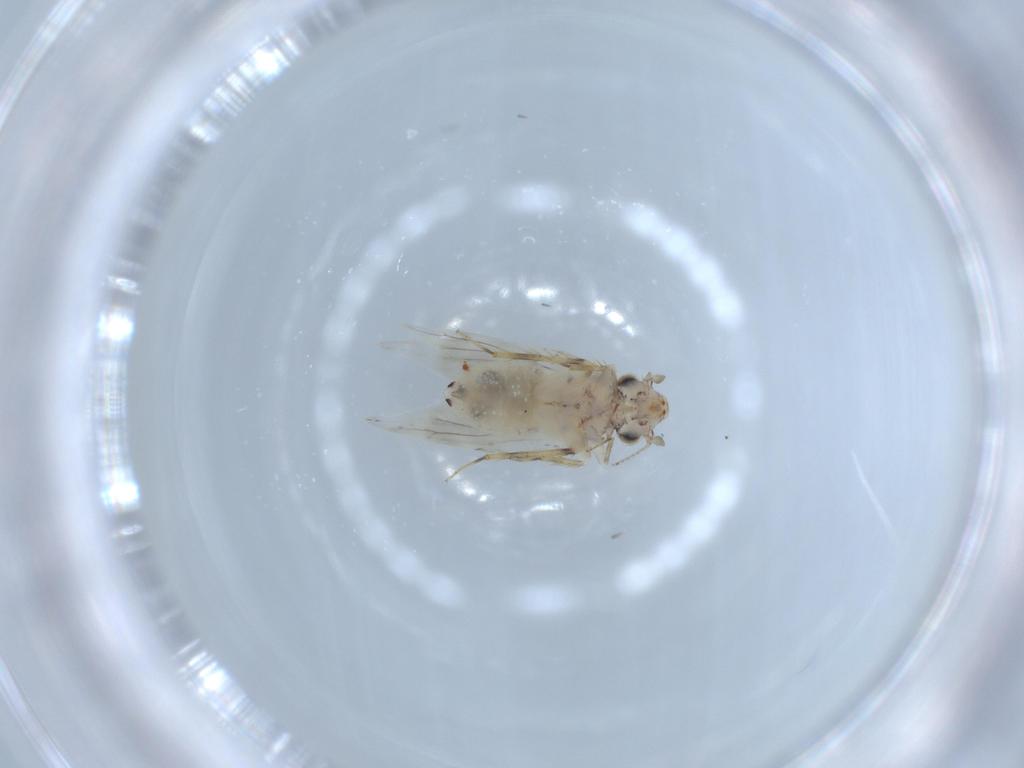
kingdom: Animalia
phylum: Arthropoda
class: Insecta
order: Psocodea
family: Lepidopsocidae
